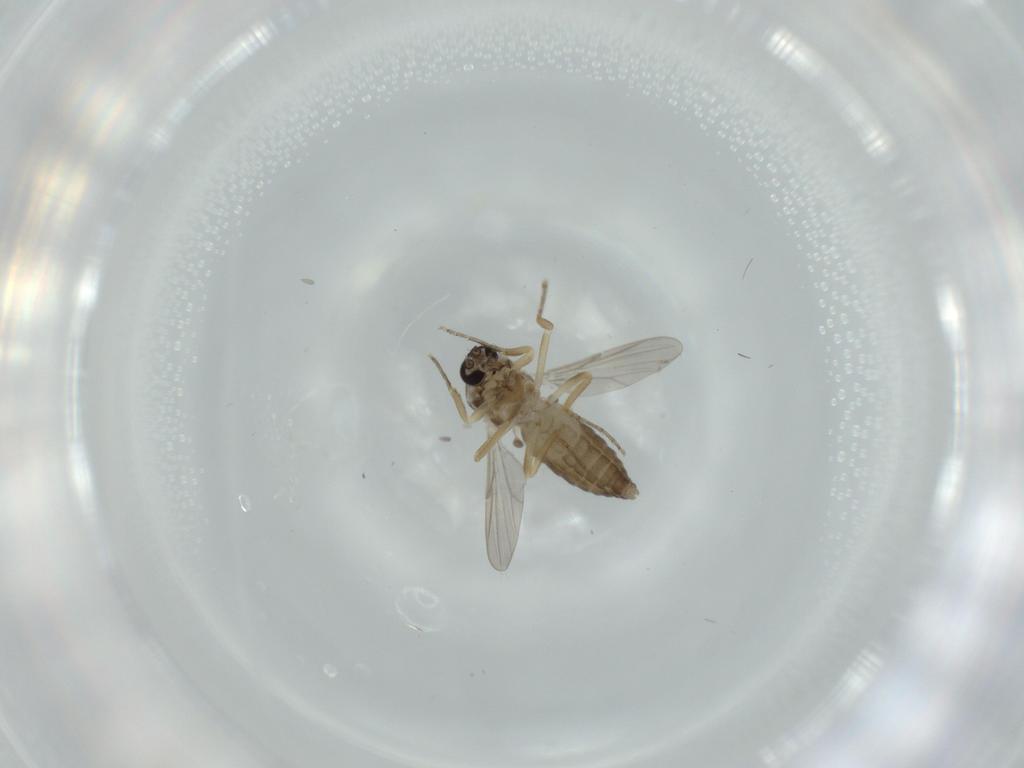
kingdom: Animalia
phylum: Arthropoda
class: Insecta
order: Diptera
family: Ceratopogonidae
